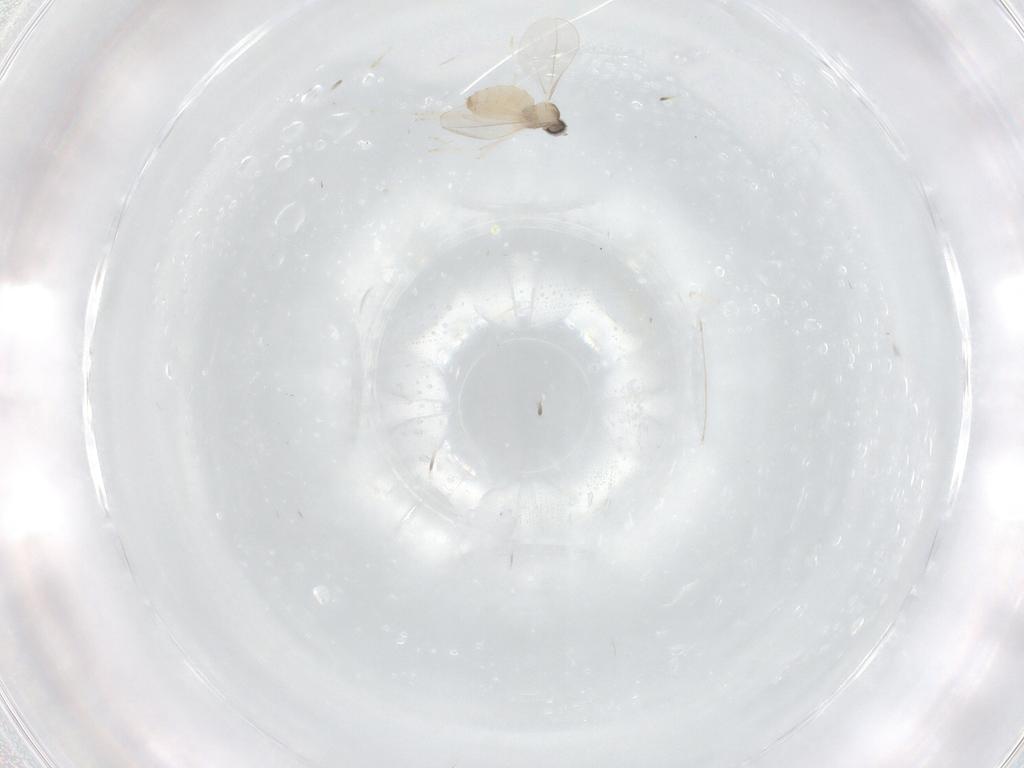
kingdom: Animalia
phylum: Arthropoda
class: Insecta
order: Diptera
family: Cecidomyiidae
